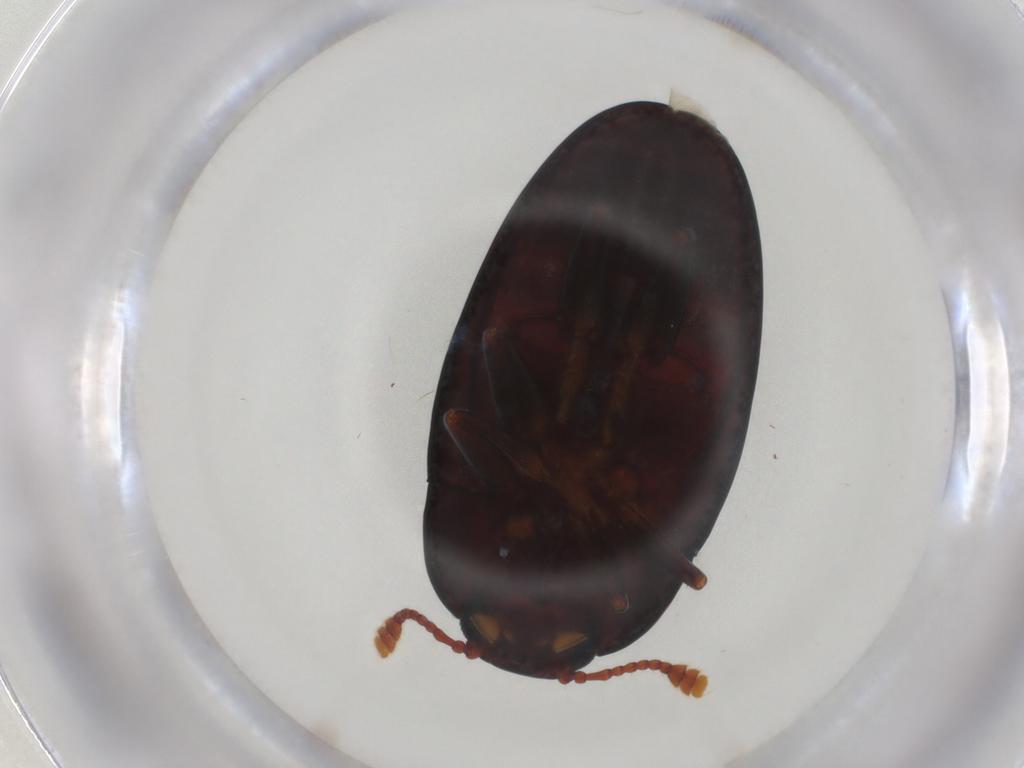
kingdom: Animalia
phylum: Arthropoda
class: Insecta
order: Coleoptera
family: Erotylidae
